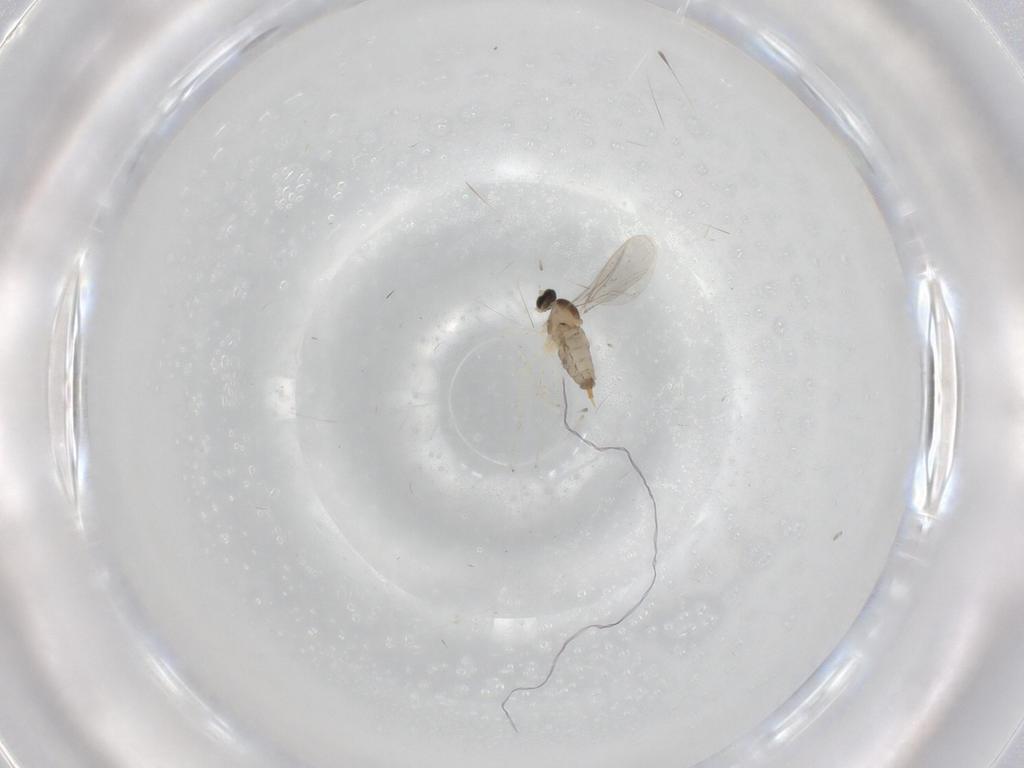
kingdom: Animalia
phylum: Arthropoda
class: Insecta
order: Diptera
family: Cecidomyiidae
